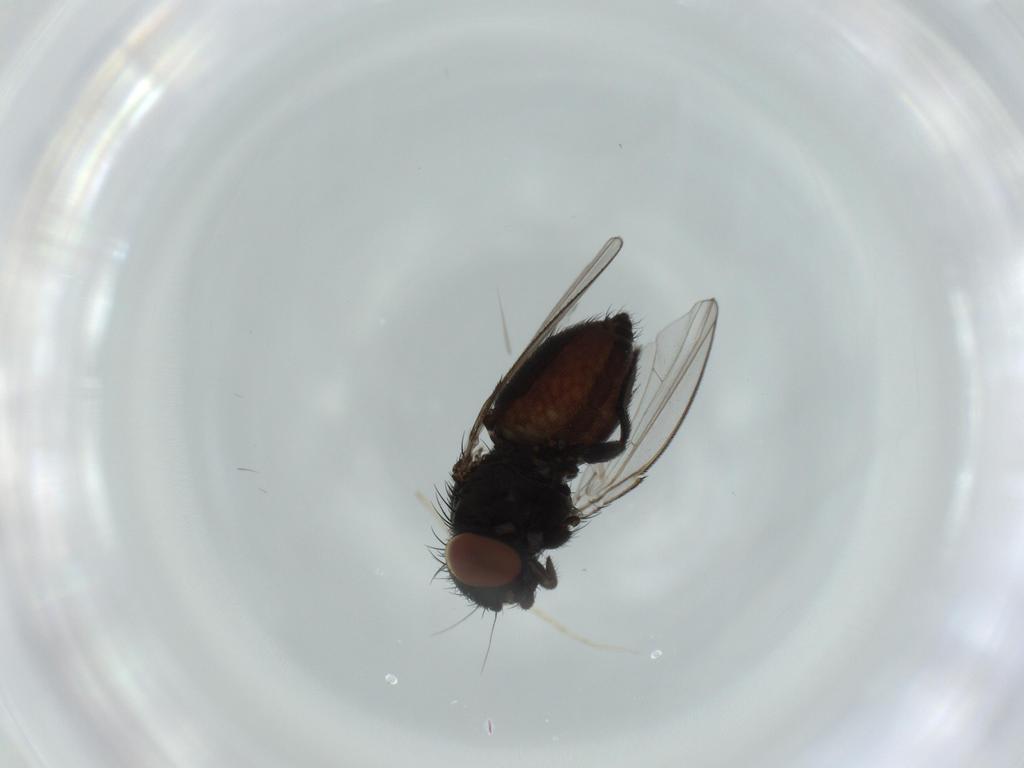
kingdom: Animalia
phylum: Arthropoda
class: Insecta
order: Diptera
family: Milichiidae
